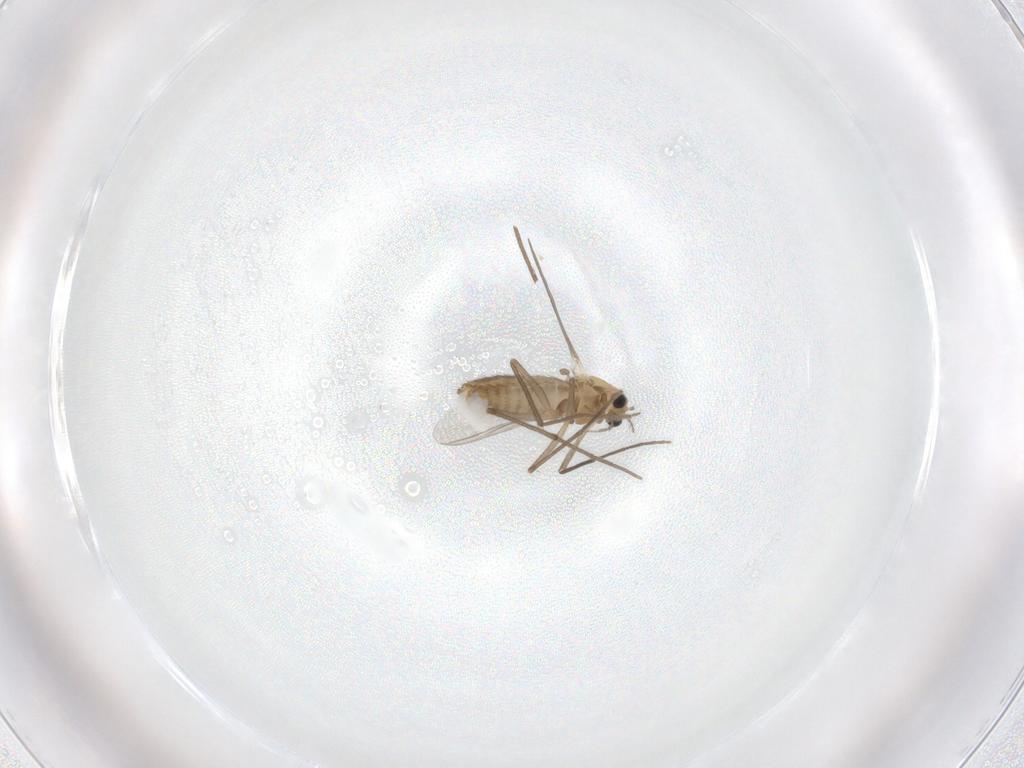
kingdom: Animalia
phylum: Arthropoda
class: Insecta
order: Diptera
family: Chironomidae
